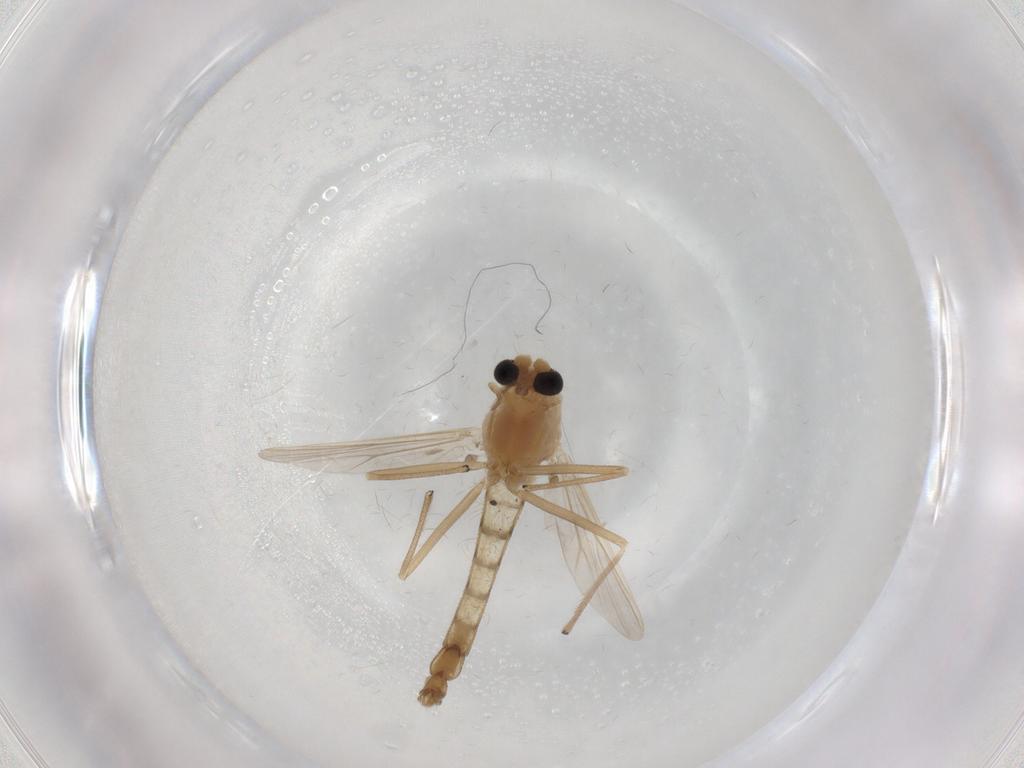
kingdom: Animalia
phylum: Arthropoda
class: Insecta
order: Diptera
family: Chironomidae
